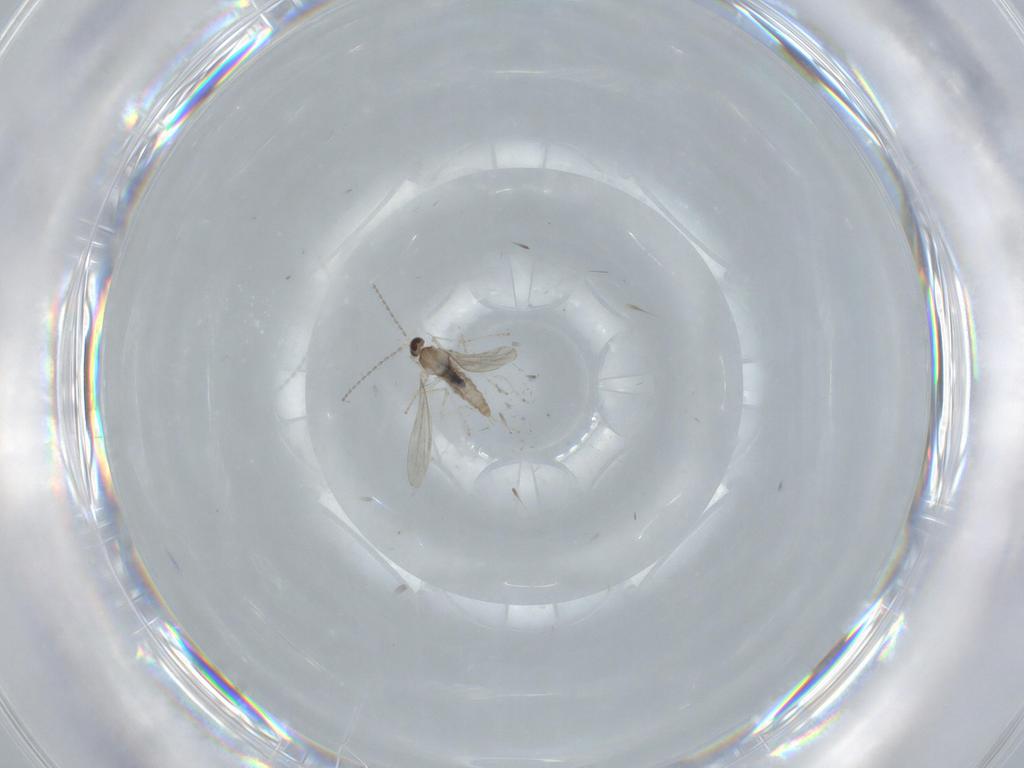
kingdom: Animalia
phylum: Arthropoda
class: Insecta
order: Diptera
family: Cecidomyiidae
